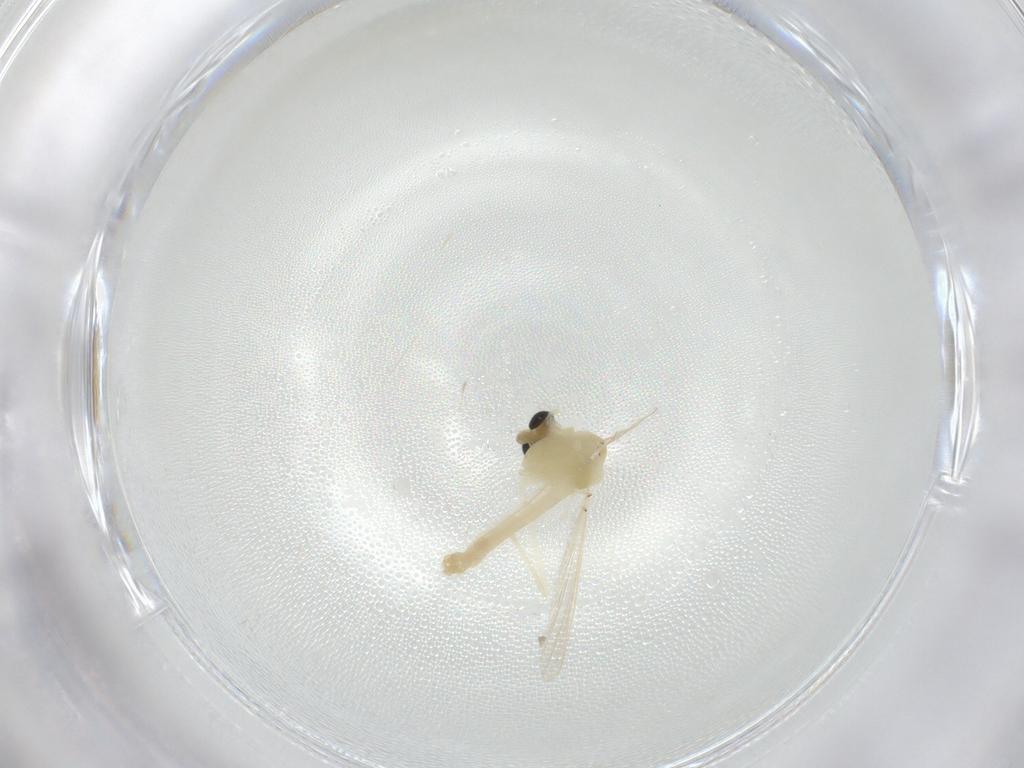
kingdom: Animalia
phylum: Arthropoda
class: Insecta
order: Diptera
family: Chironomidae
